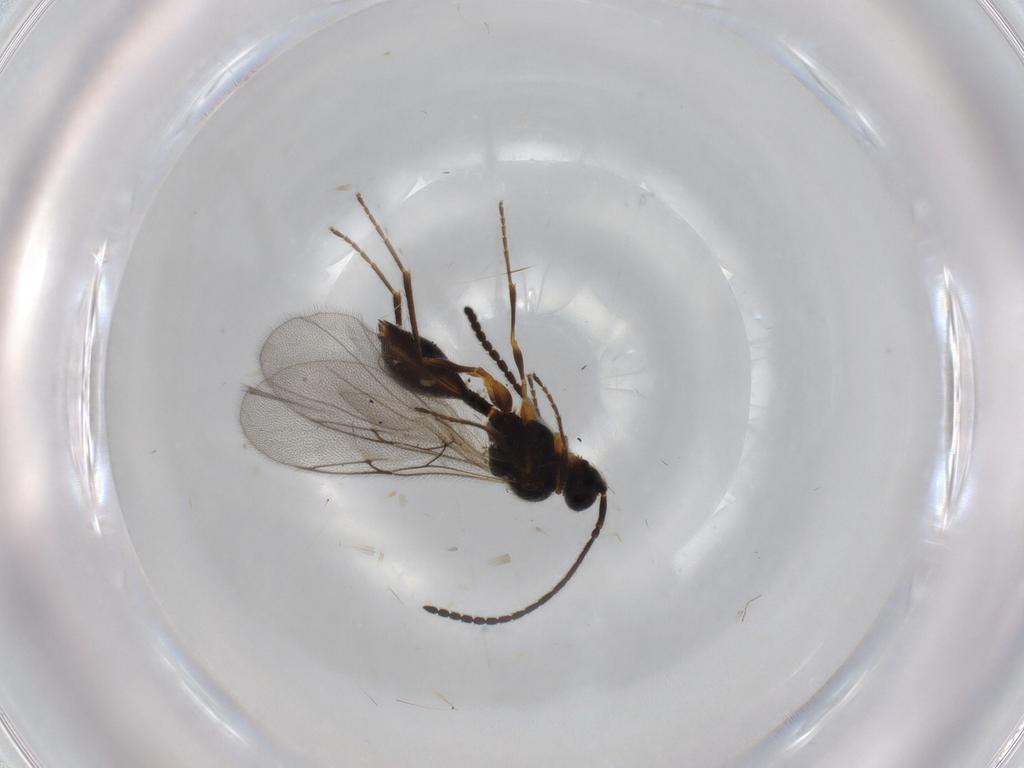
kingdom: Animalia
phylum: Arthropoda
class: Insecta
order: Hymenoptera
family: Diapriidae
